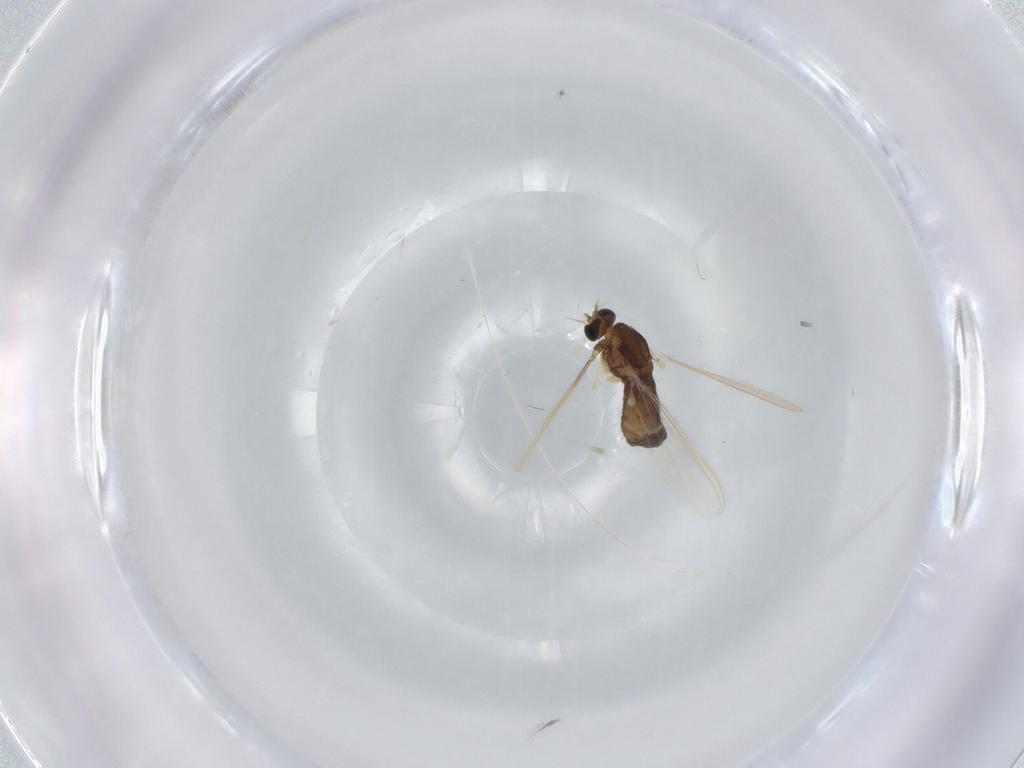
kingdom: Animalia
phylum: Arthropoda
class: Insecta
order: Diptera
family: Chironomidae
